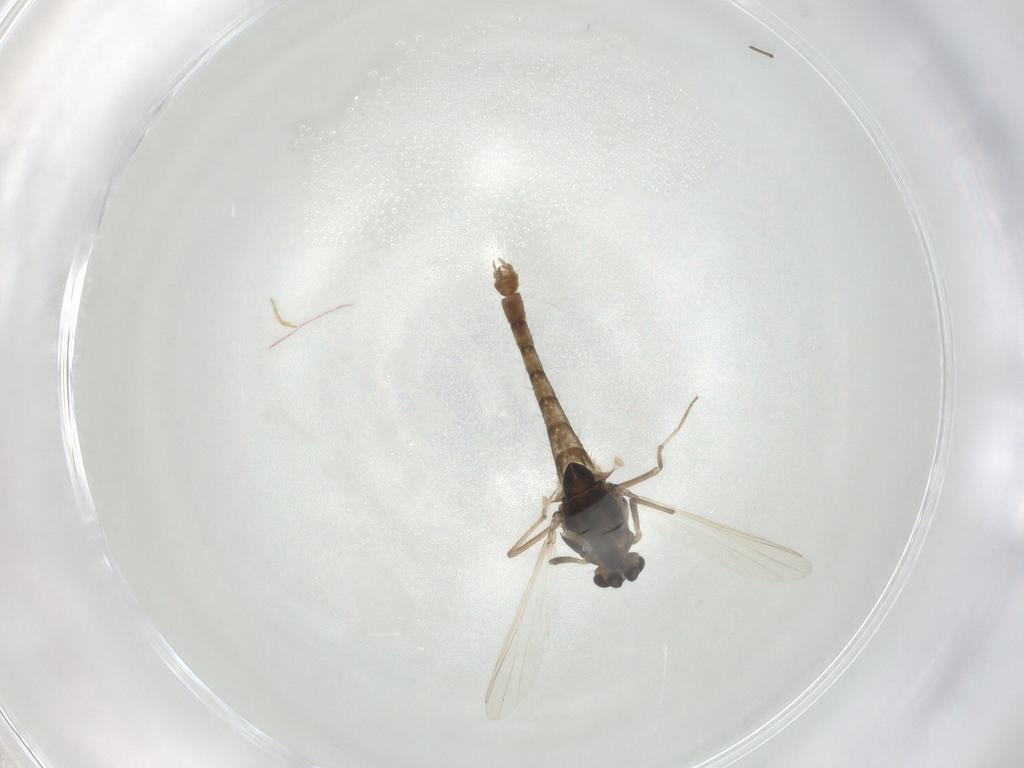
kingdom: Animalia
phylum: Arthropoda
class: Insecta
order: Diptera
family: Chironomidae
